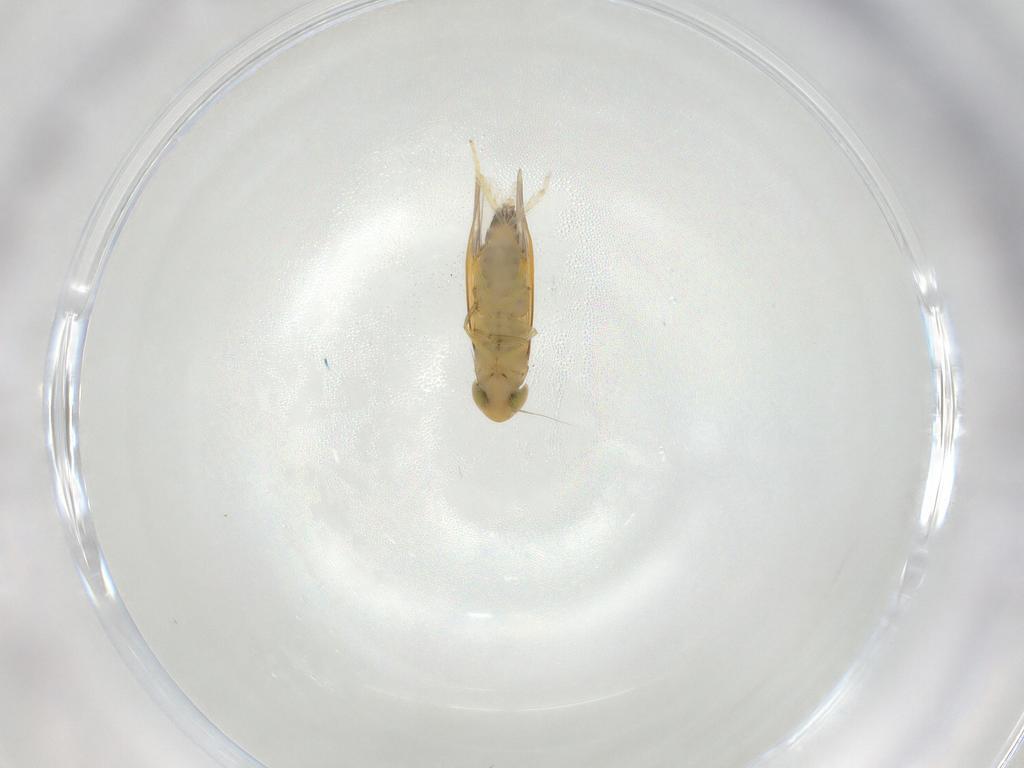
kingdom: Animalia
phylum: Arthropoda
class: Insecta
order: Hemiptera
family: Cicadellidae
